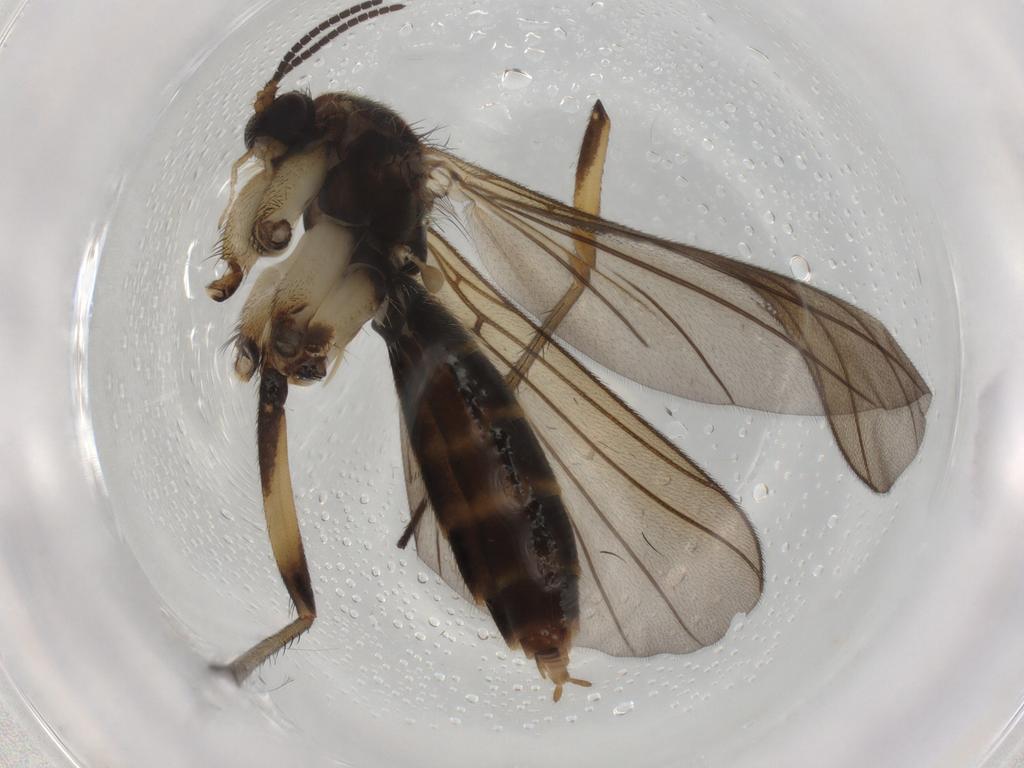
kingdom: Animalia
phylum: Arthropoda
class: Insecta
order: Diptera
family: Mycetophilidae
